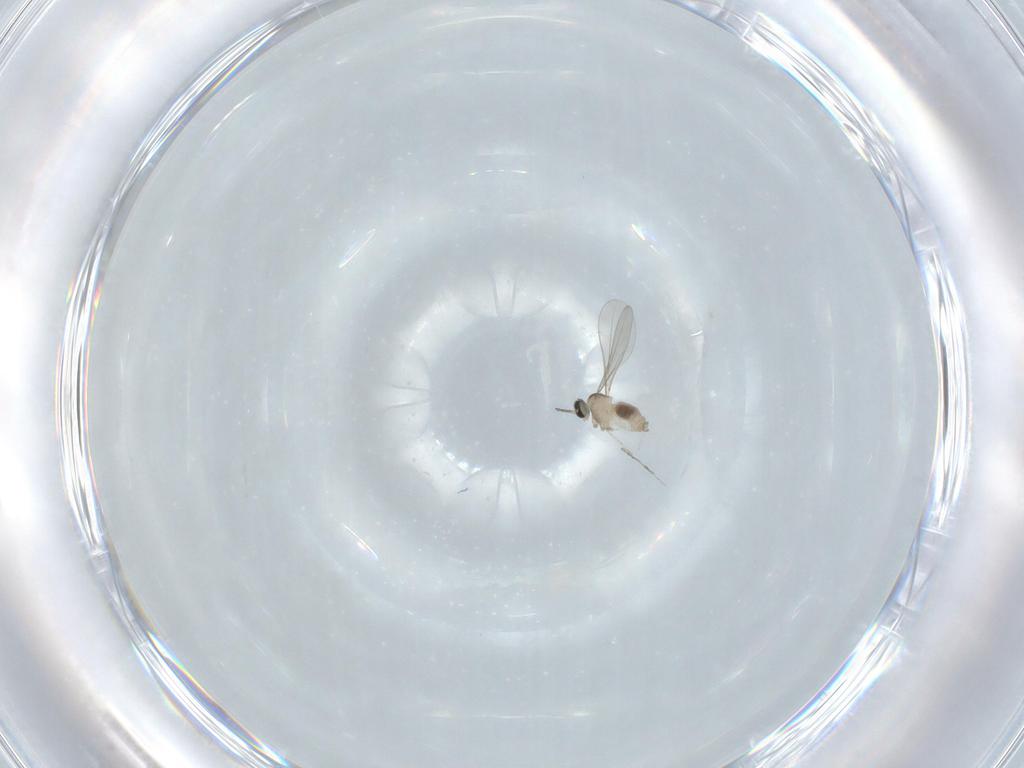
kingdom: Animalia
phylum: Arthropoda
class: Insecta
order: Diptera
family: Cecidomyiidae
